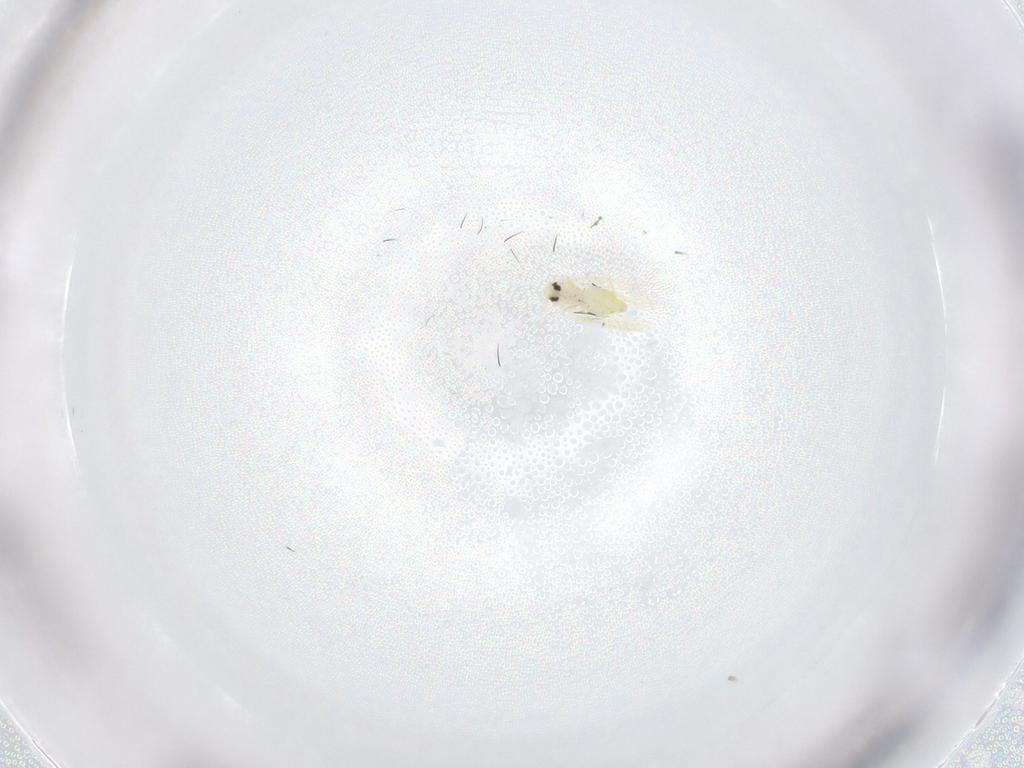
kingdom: Animalia
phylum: Arthropoda
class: Insecta
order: Hemiptera
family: Aleyrodidae
